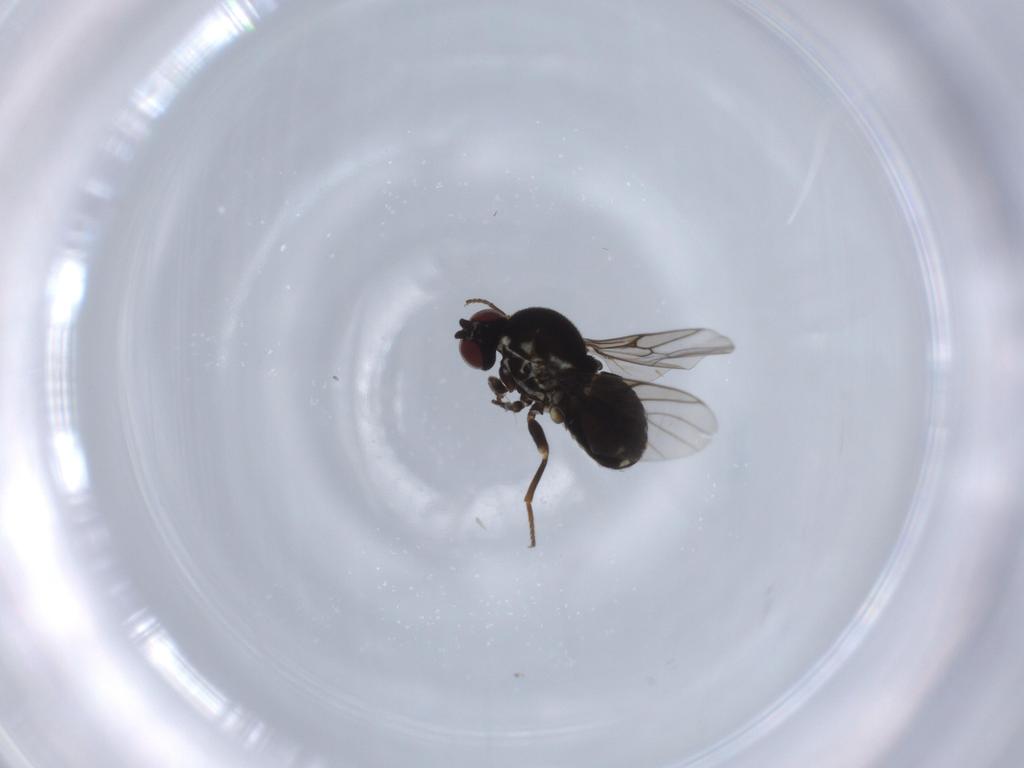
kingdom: Animalia
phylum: Arthropoda
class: Insecta
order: Diptera
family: Bombyliidae
